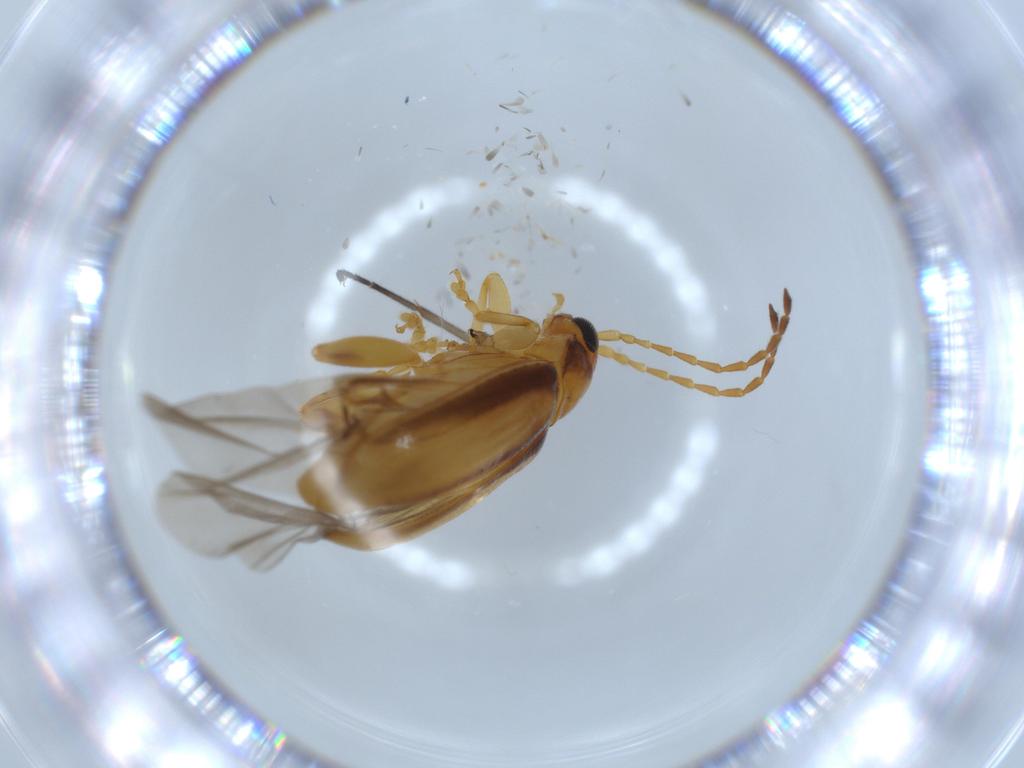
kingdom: Animalia
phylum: Arthropoda
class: Insecta
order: Coleoptera
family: Chrysomelidae
